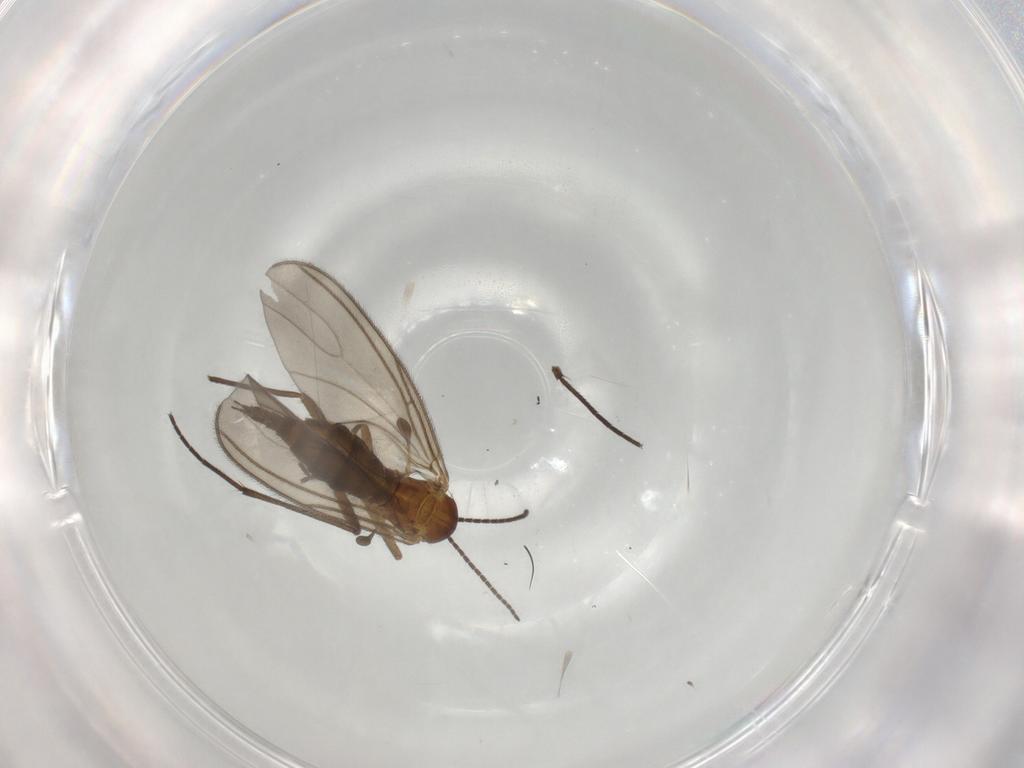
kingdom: Animalia
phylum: Arthropoda
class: Insecta
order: Diptera
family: Sciaridae
